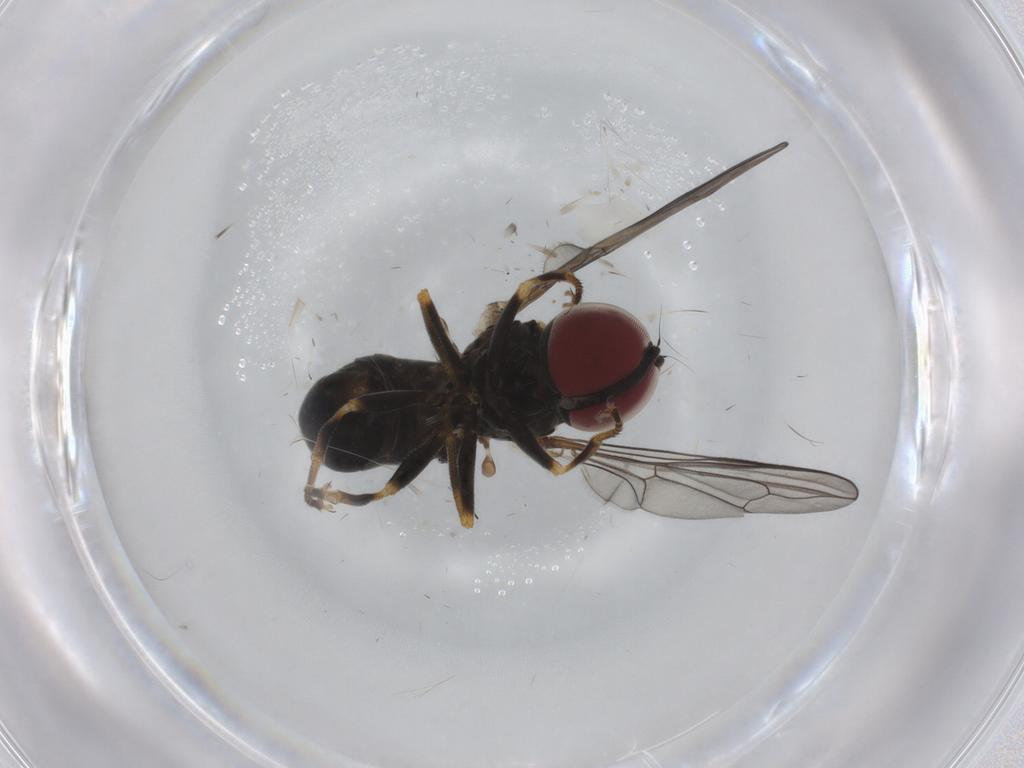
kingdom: Animalia
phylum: Arthropoda
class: Insecta
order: Diptera
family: Pipunculidae
